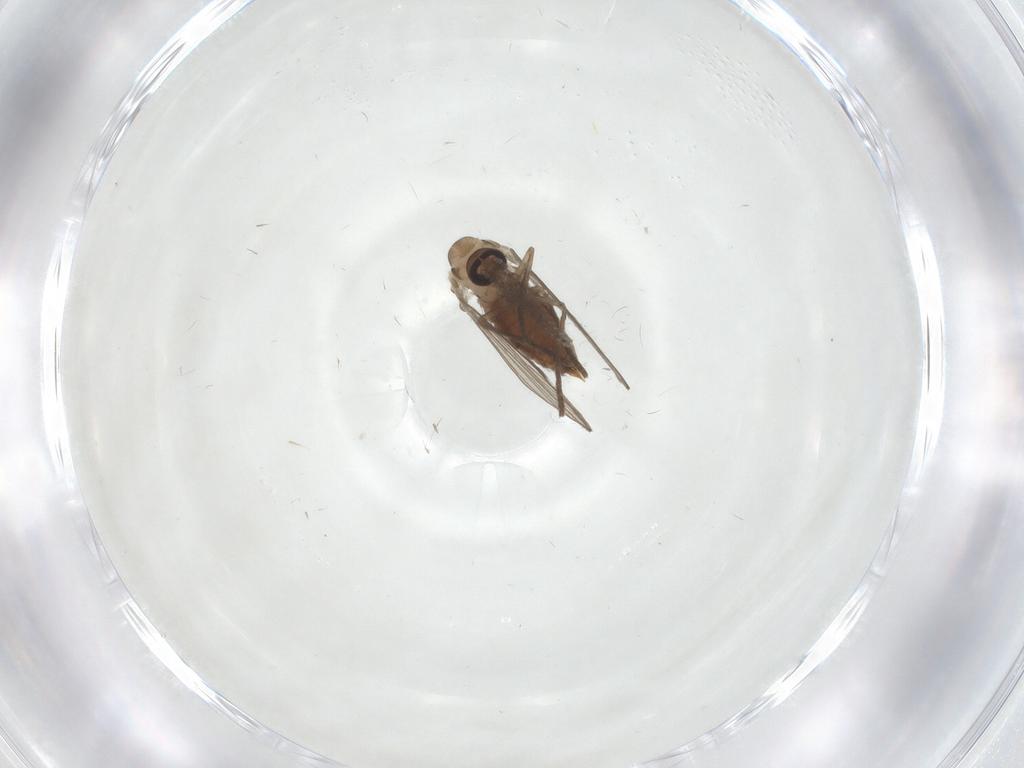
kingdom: Animalia
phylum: Arthropoda
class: Insecta
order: Diptera
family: Psychodidae
